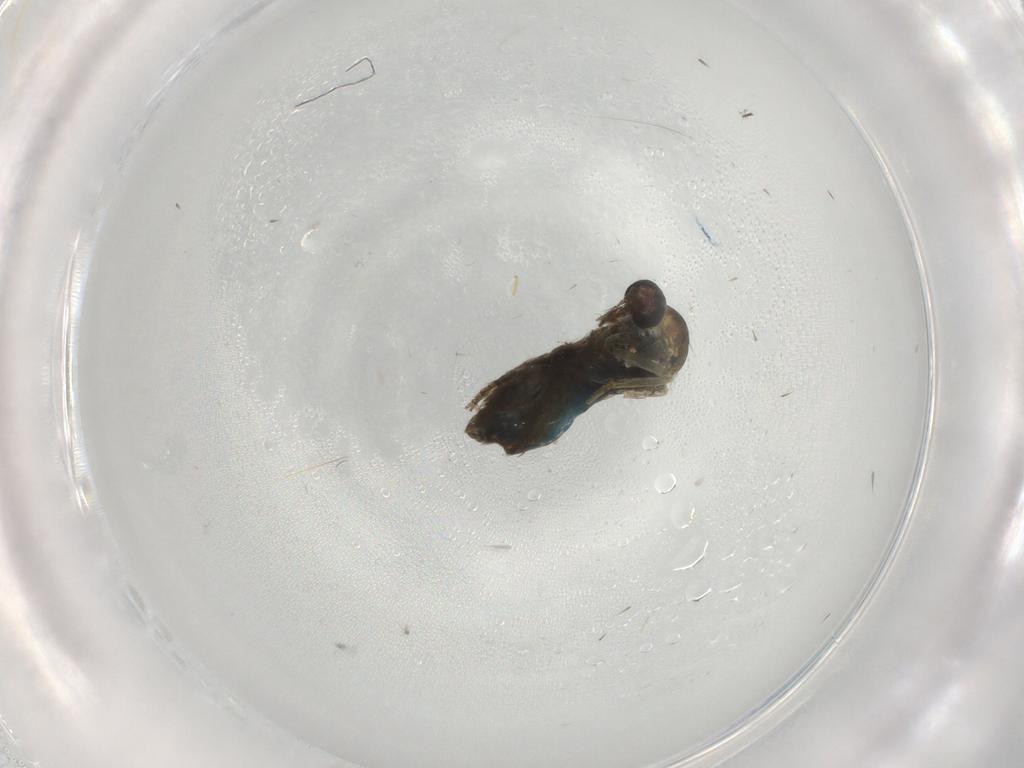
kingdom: Animalia
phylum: Arthropoda
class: Insecta
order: Diptera
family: Ceratopogonidae
